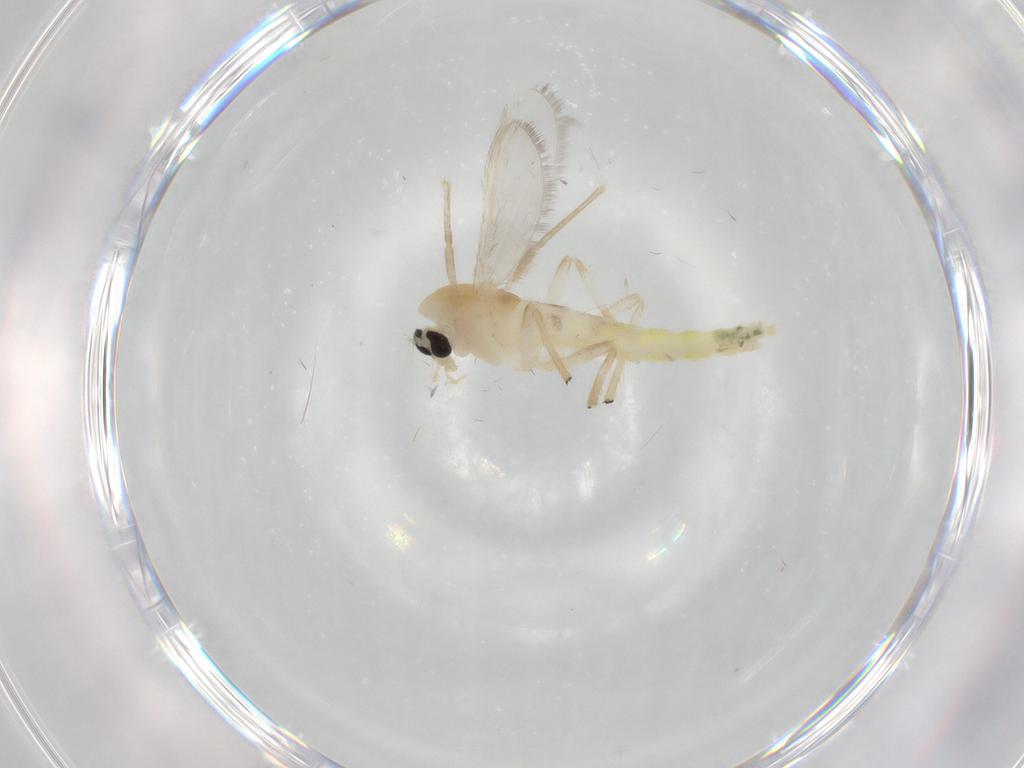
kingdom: Animalia
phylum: Arthropoda
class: Insecta
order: Diptera
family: Chironomidae
